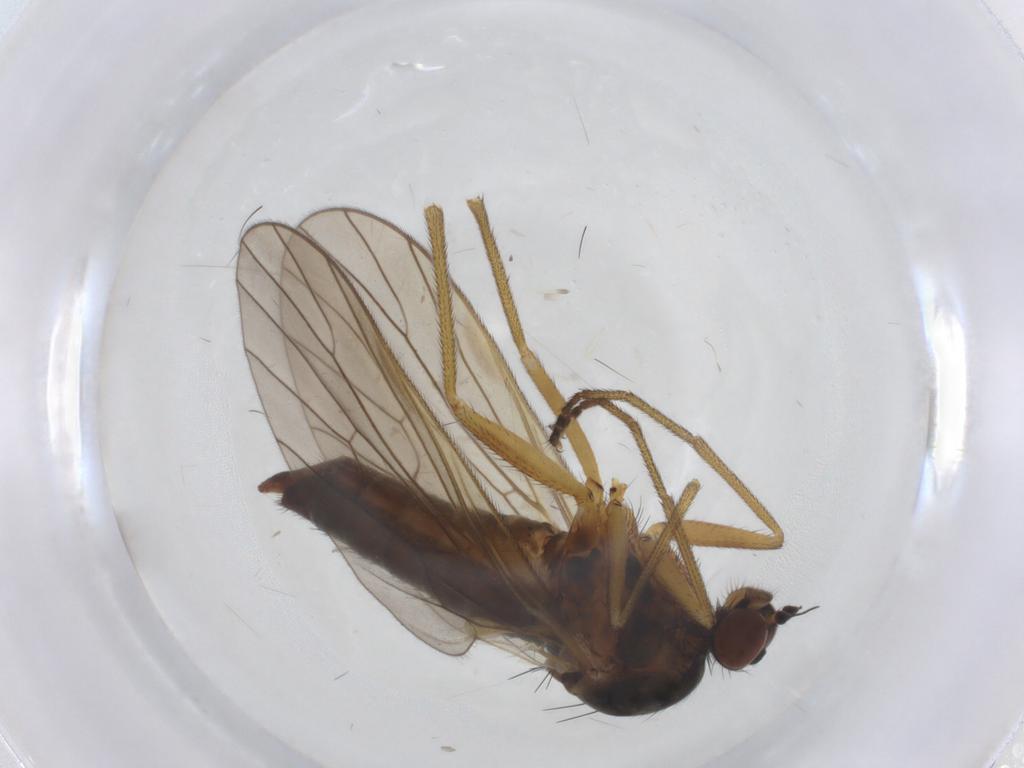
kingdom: Animalia
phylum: Arthropoda
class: Insecta
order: Diptera
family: Brachystomatidae
